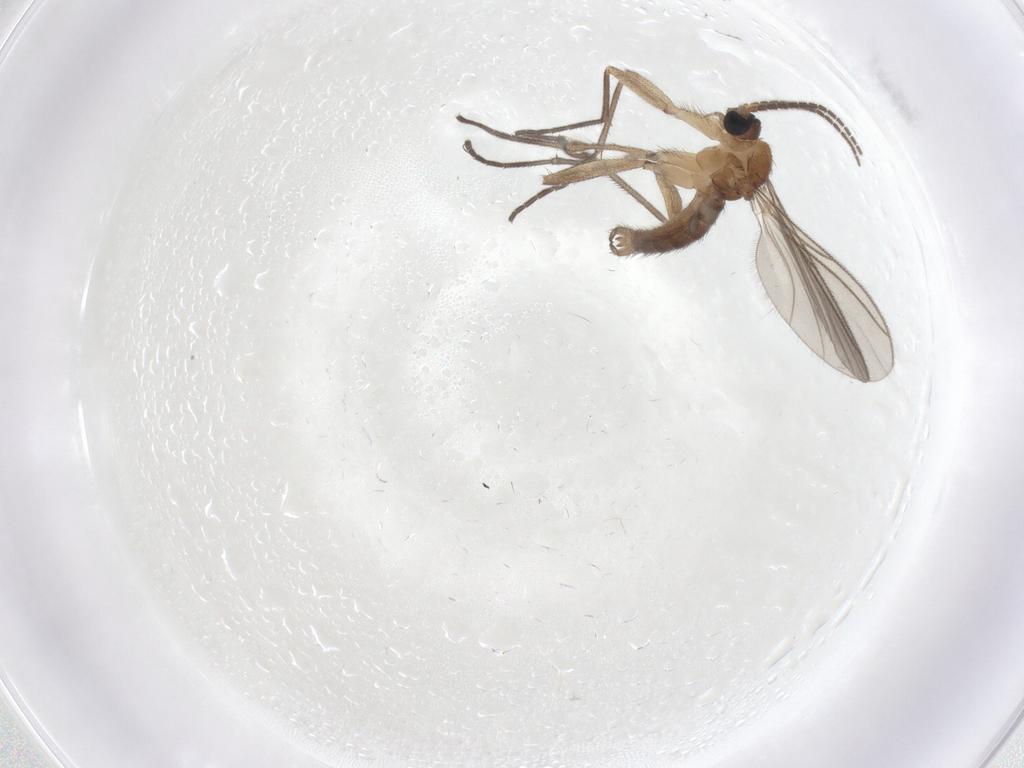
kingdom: Animalia
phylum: Arthropoda
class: Insecta
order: Diptera
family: Sciaridae
